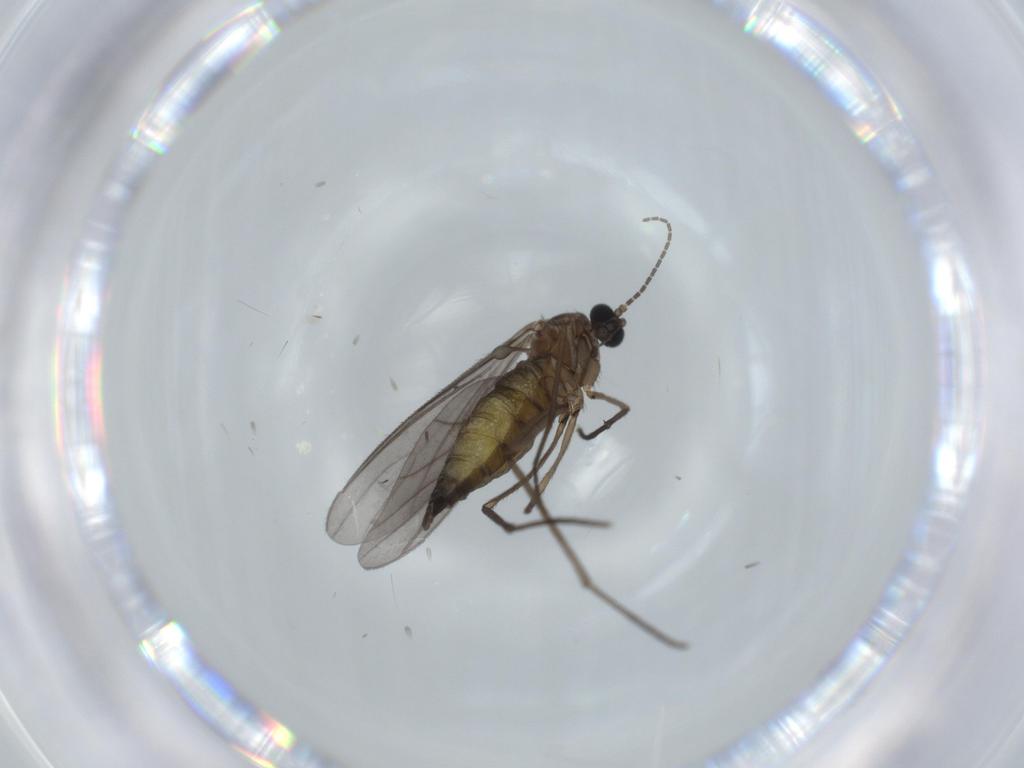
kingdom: Animalia
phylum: Arthropoda
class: Insecta
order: Diptera
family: Sciaridae
